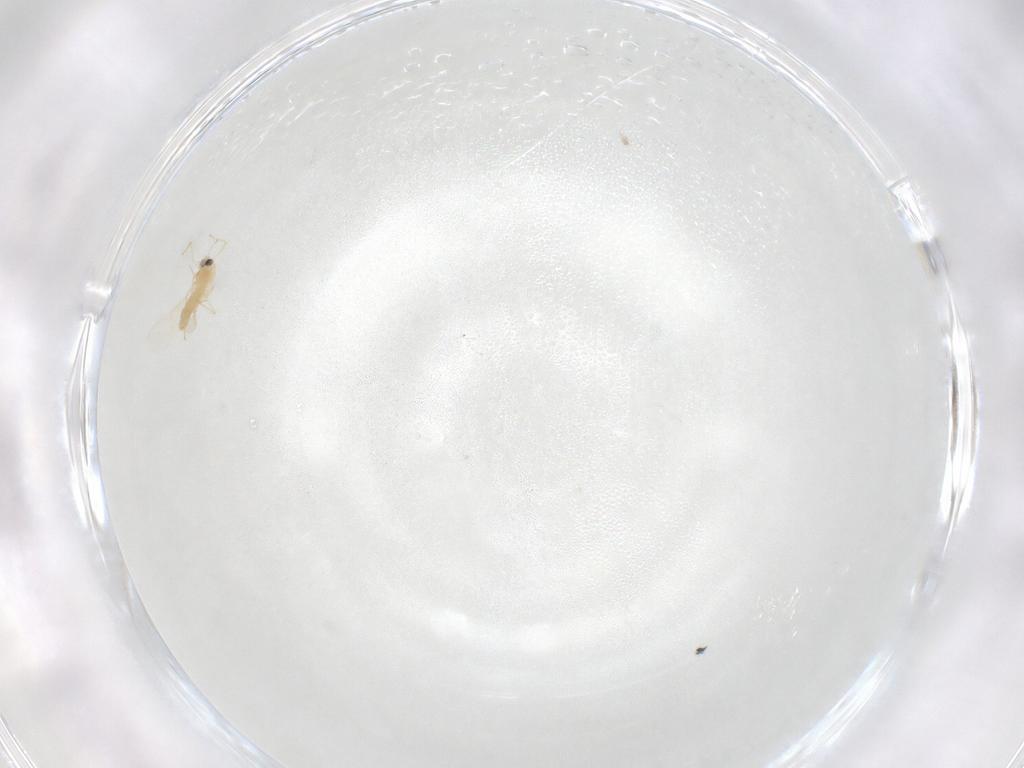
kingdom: Animalia
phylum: Arthropoda
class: Insecta
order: Diptera
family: Chironomidae
